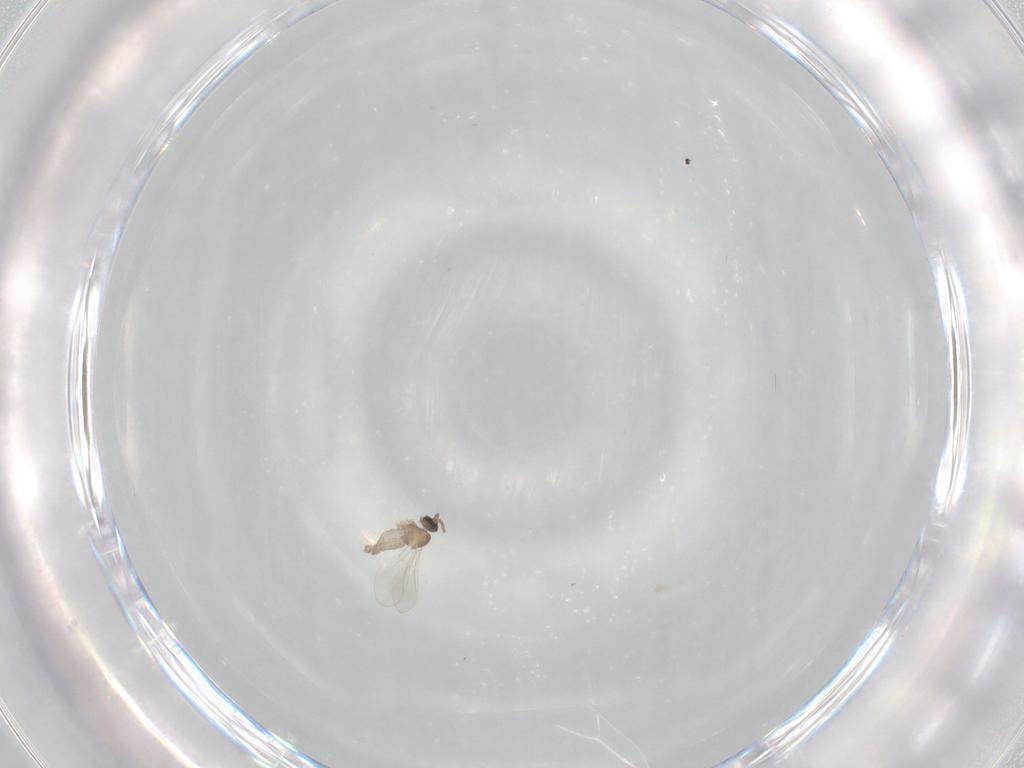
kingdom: Animalia
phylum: Arthropoda
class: Insecta
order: Diptera
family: Cecidomyiidae
